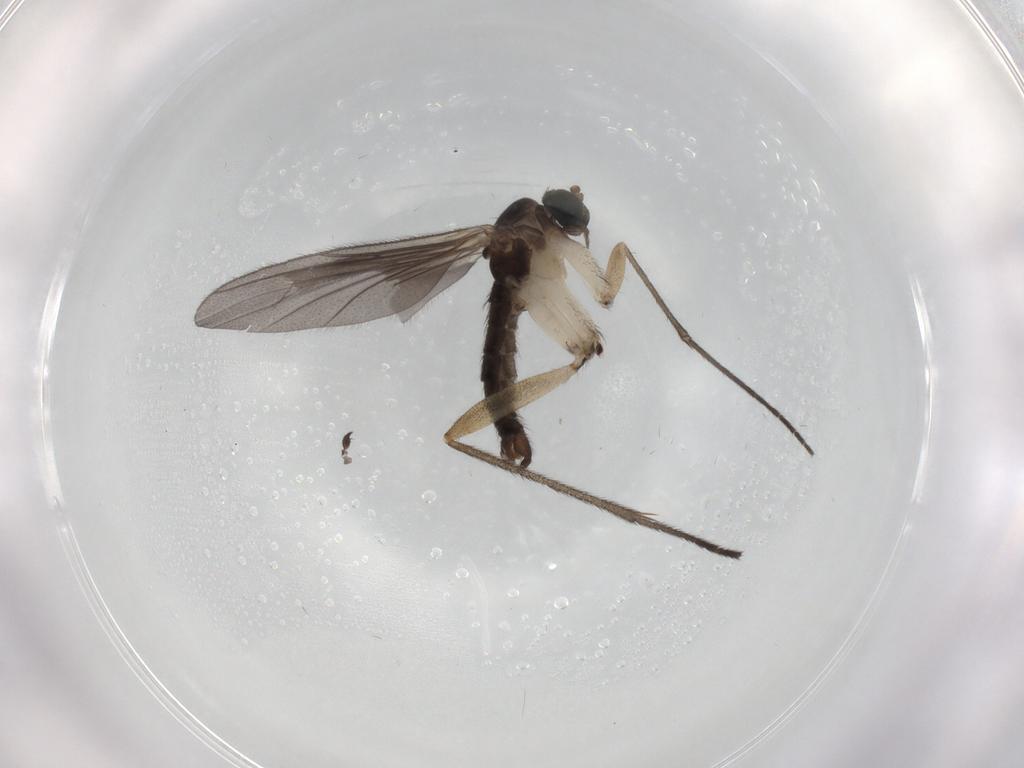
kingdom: Animalia
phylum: Arthropoda
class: Insecta
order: Diptera
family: Sciaridae
